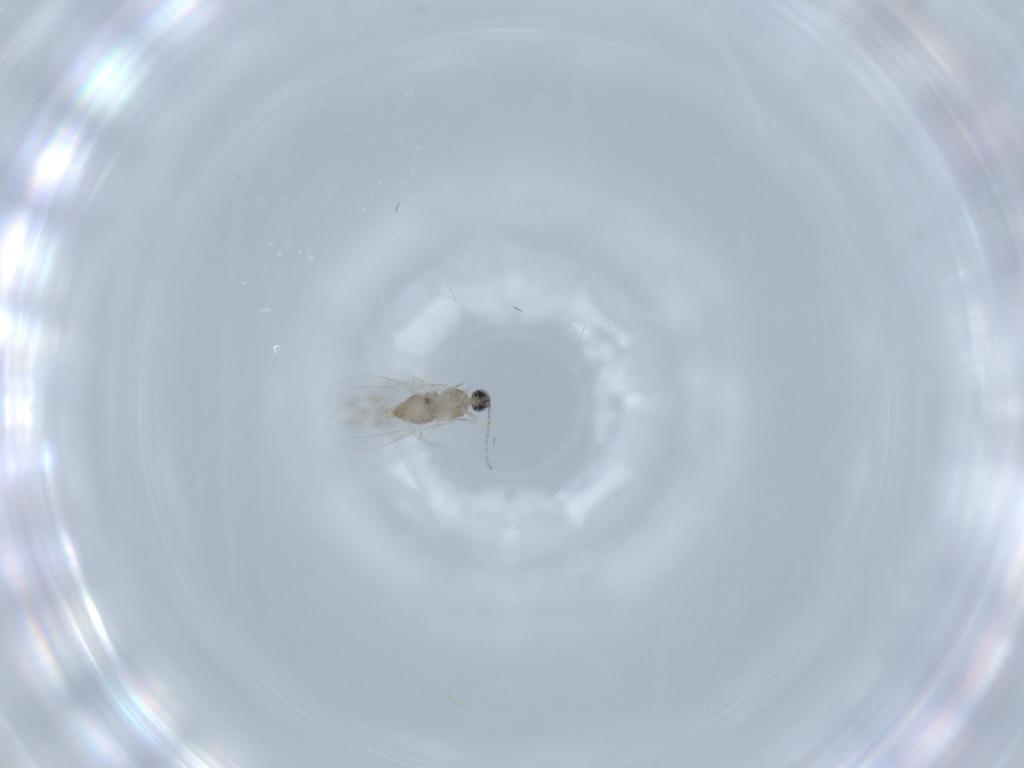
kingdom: Animalia
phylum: Arthropoda
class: Insecta
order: Diptera
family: Cecidomyiidae
